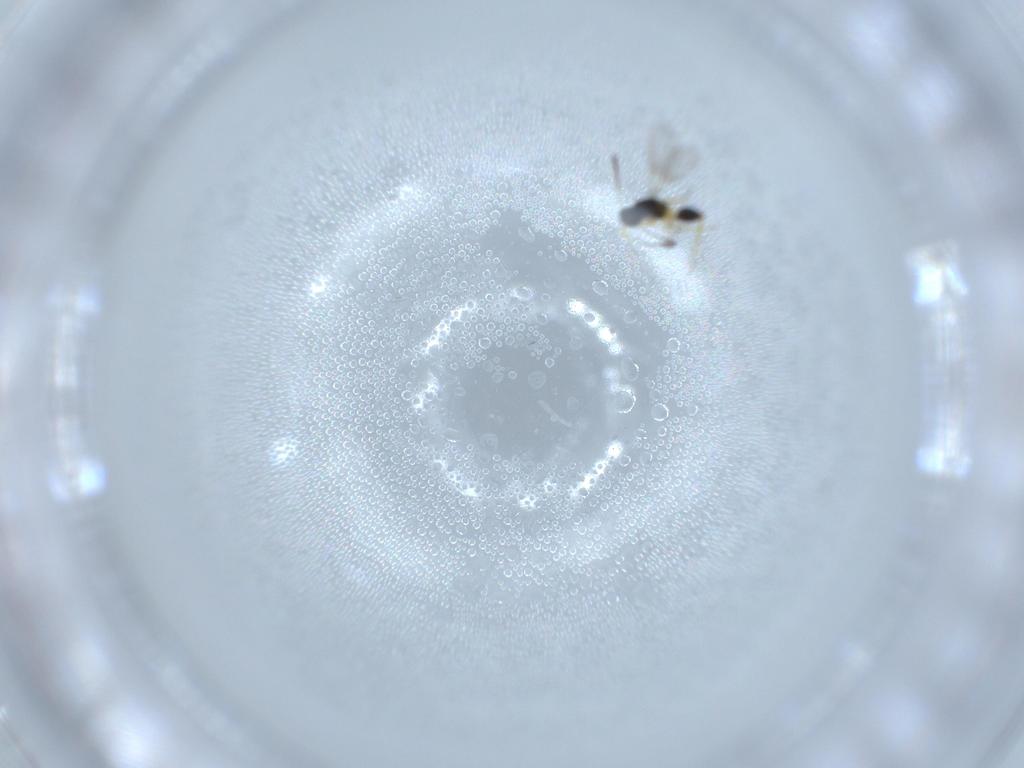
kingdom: Animalia
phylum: Arthropoda
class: Insecta
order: Hymenoptera
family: Mymaridae
